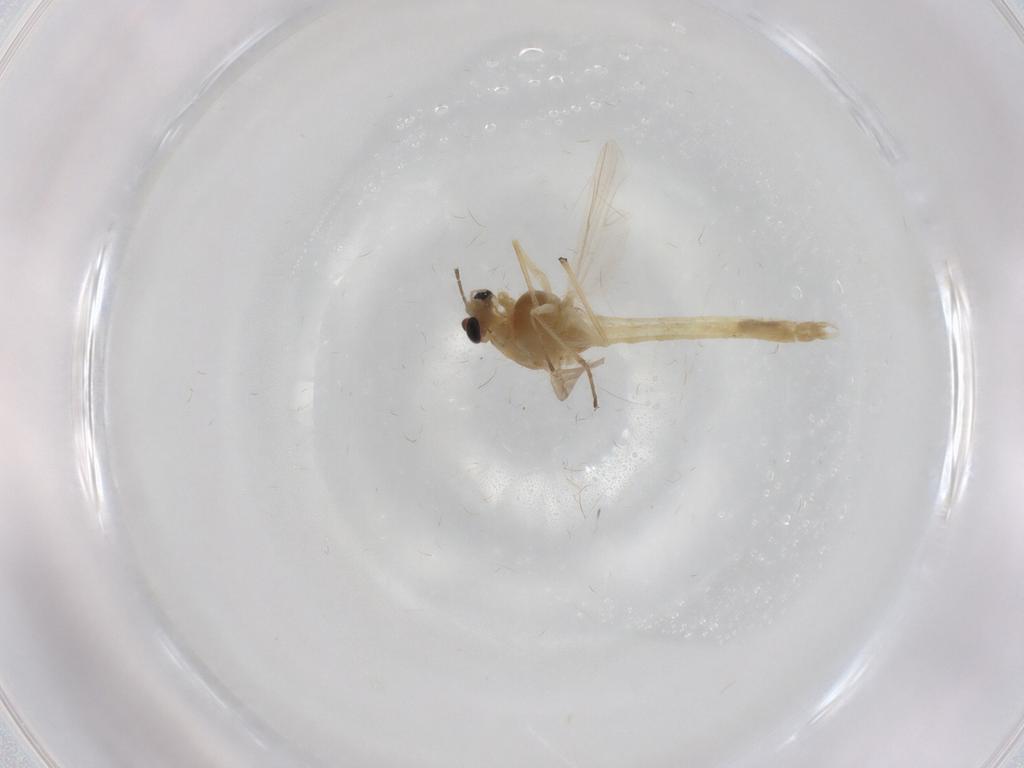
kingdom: Animalia
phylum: Arthropoda
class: Insecta
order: Diptera
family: Chironomidae
